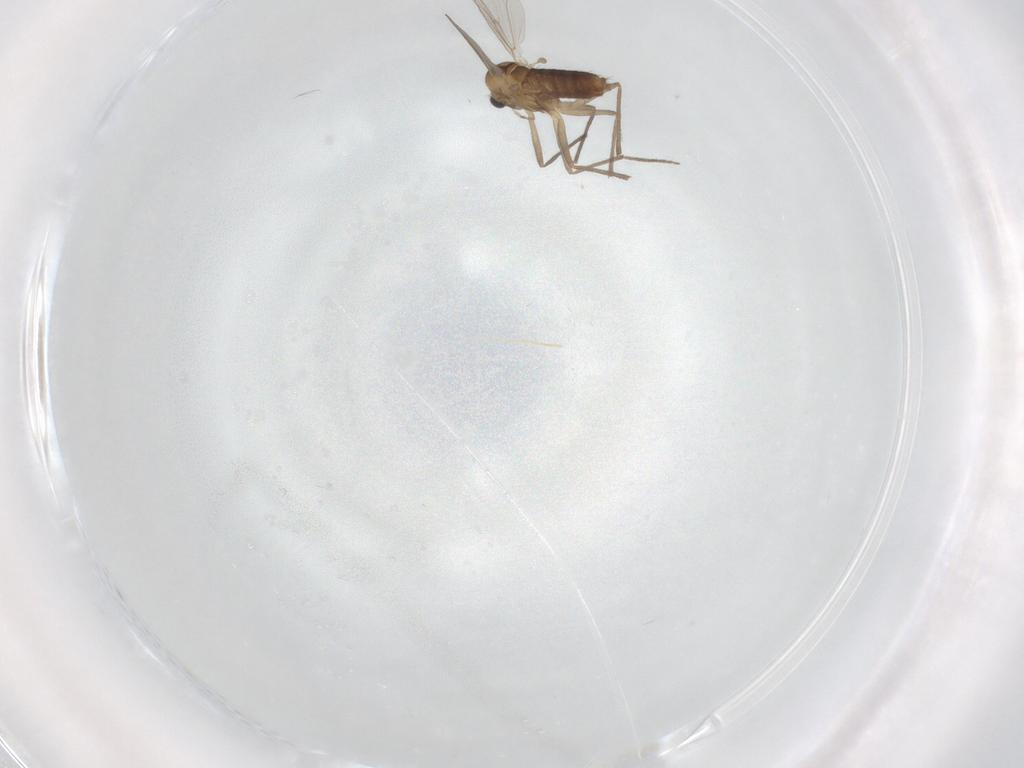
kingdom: Animalia
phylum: Arthropoda
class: Insecta
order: Diptera
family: Chironomidae
